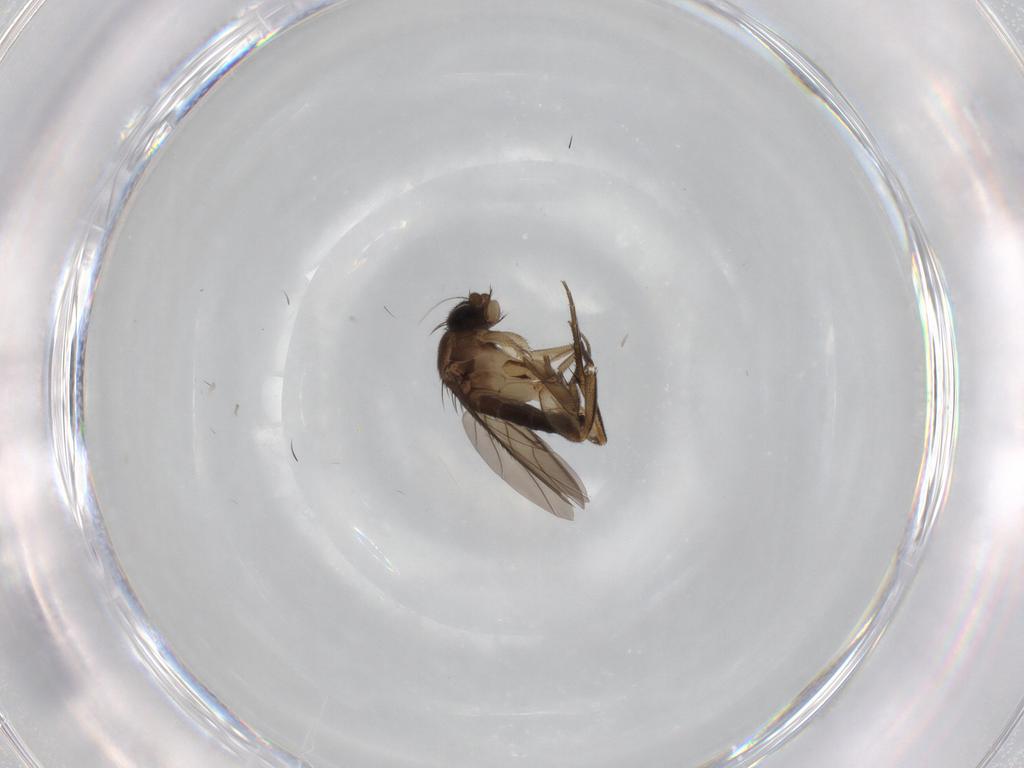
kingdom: Animalia
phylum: Arthropoda
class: Insecta
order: Diptera
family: Phoridae
